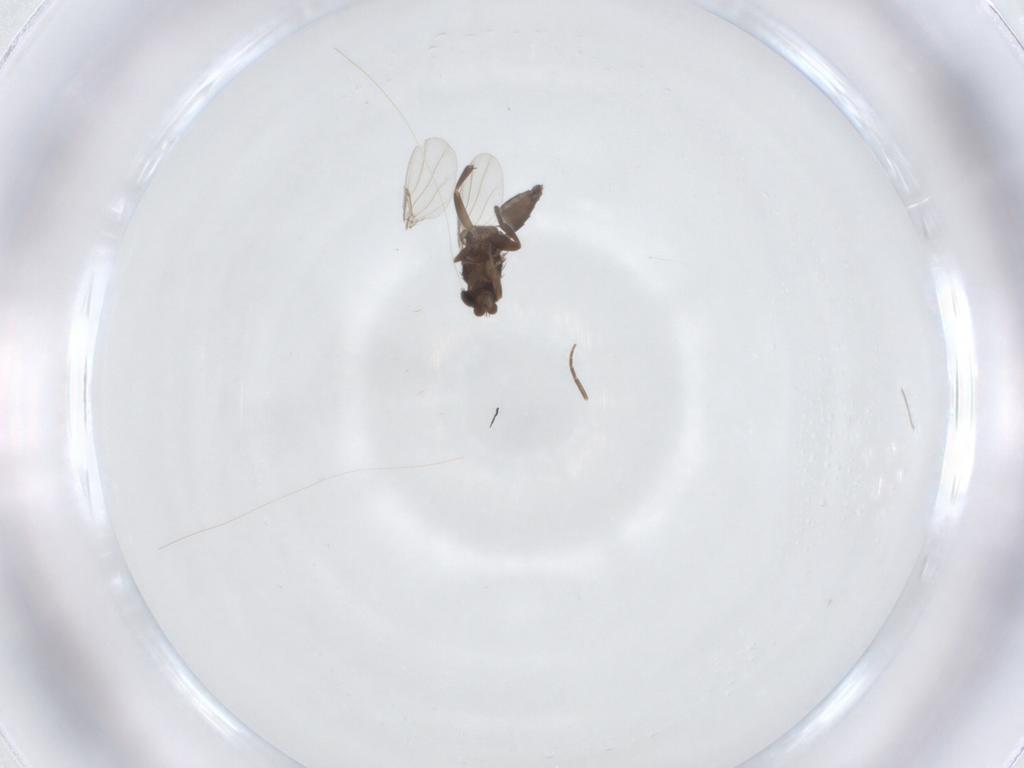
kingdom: Animalia
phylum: Arthropoda
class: Insecta
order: Diptera
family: Phoridae
